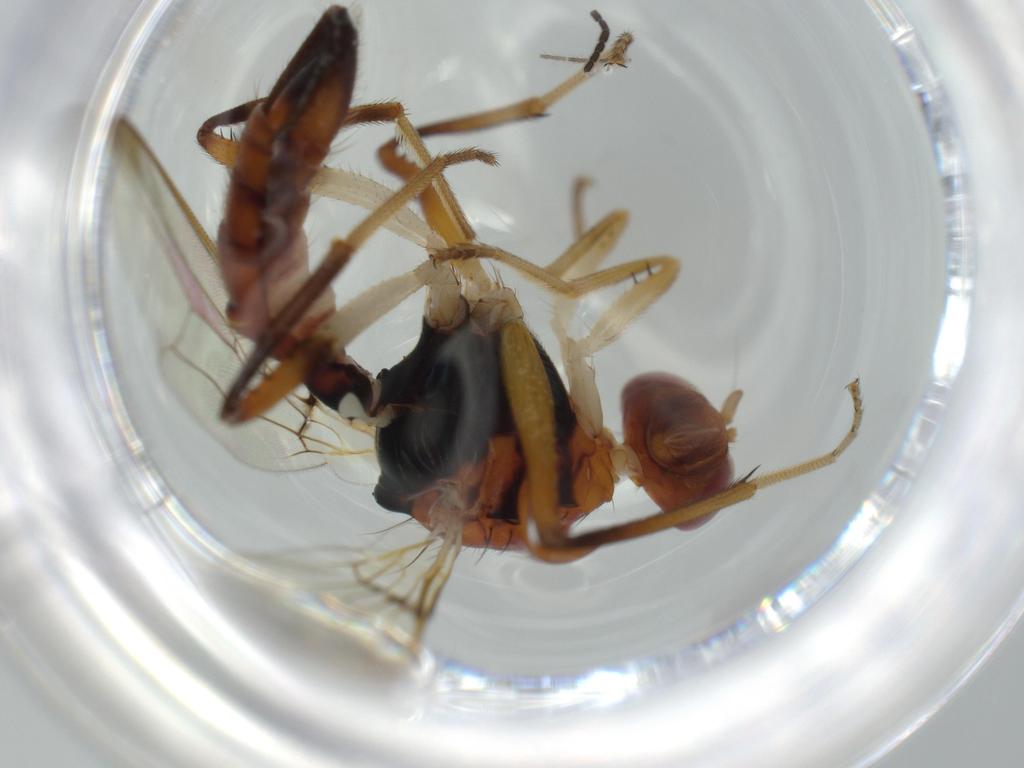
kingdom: Animalia
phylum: Arthropoda
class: Insecta
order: Diptera
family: Richardiidae
